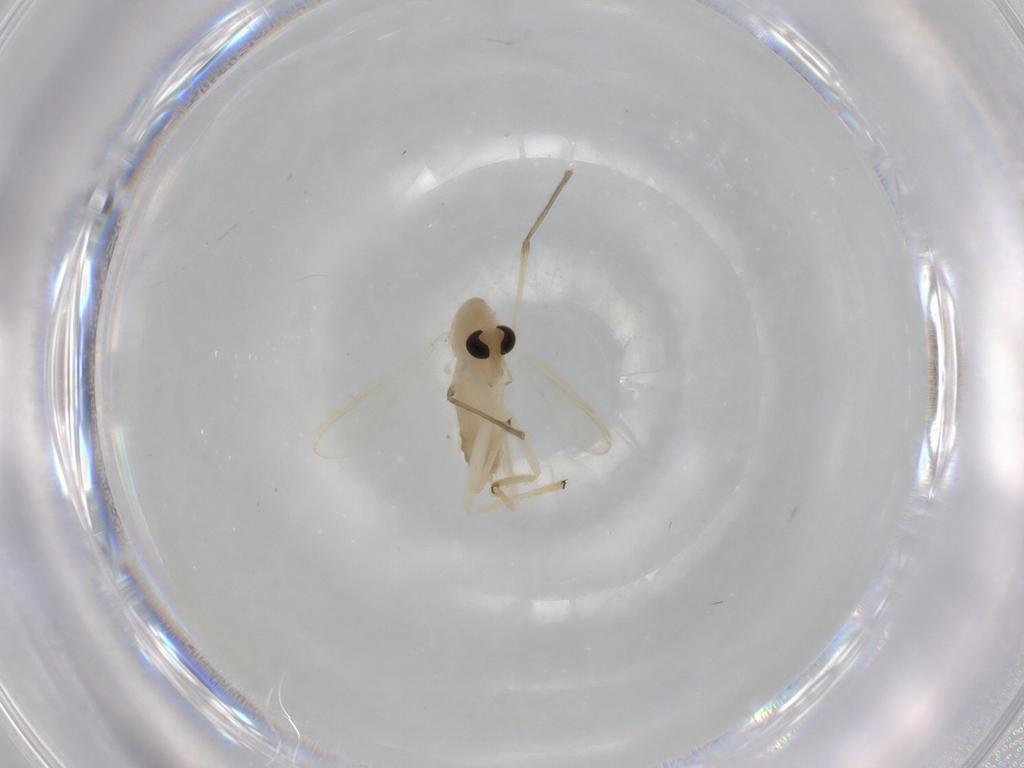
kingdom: Animalia
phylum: Arthropoda
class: Insecta
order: Diptera
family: Chironomidae
